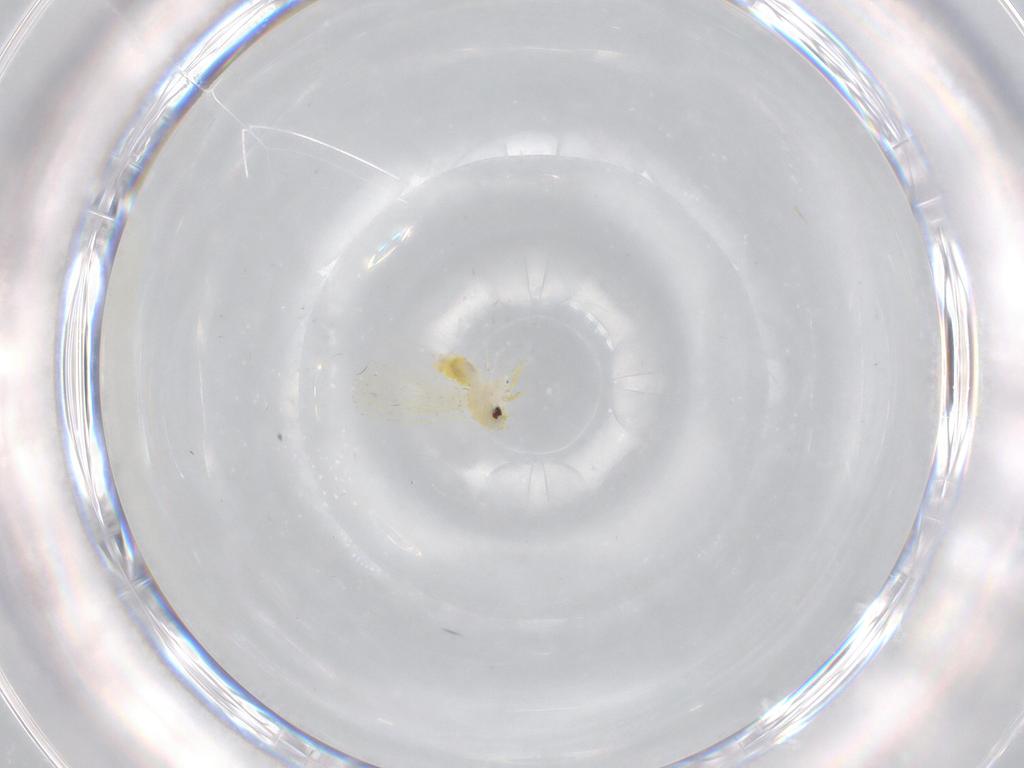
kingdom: Animalia
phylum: Arthropoda
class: Insecta
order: Hemiptera
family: Aleyrodidae
